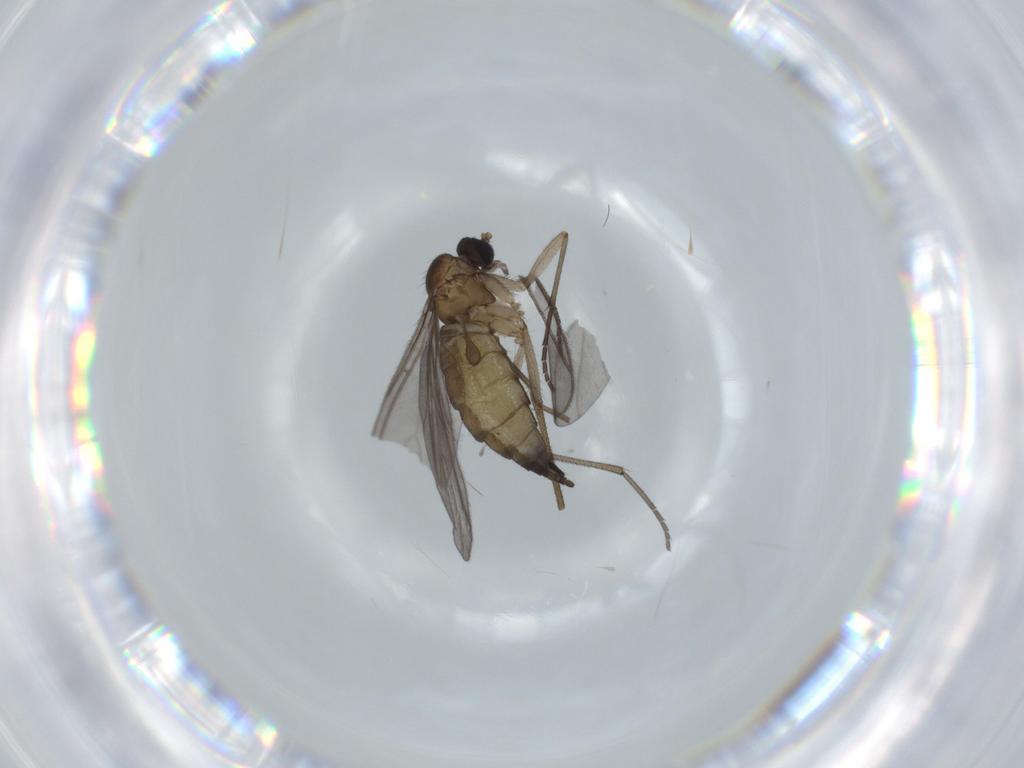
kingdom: Animalia
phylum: Arthropoda
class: Insecta
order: Diptera
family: Sciaridae
